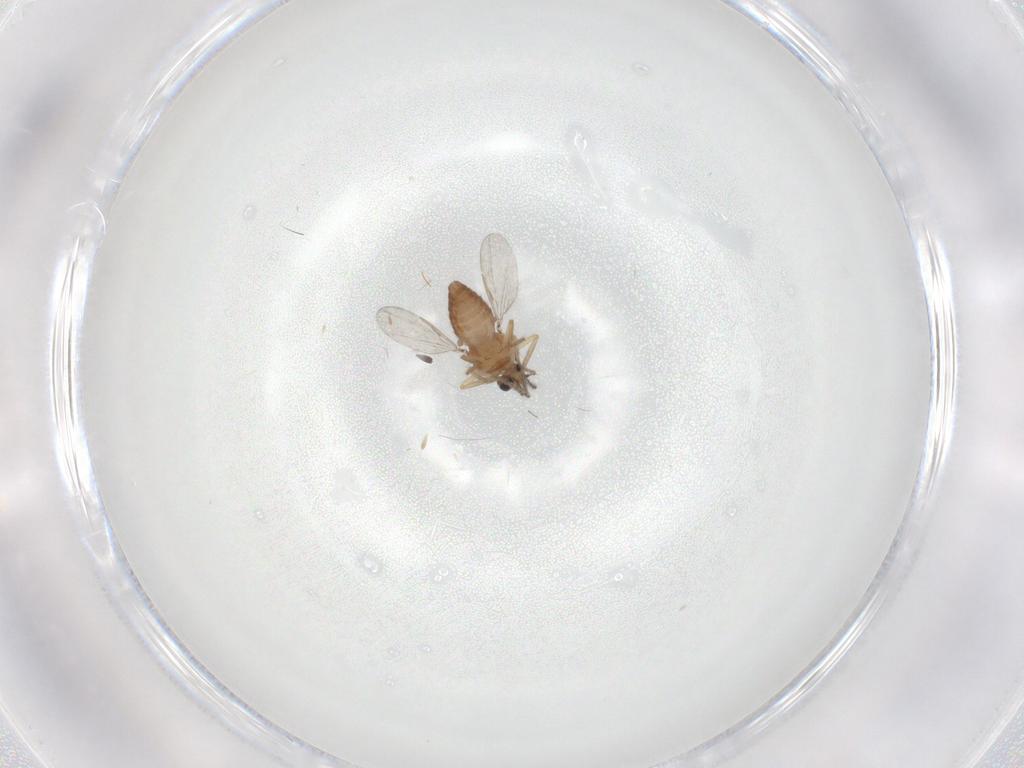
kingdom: Animalia
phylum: Arthropoda
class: Insecta
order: Diptera
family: Ceratopogonidae
